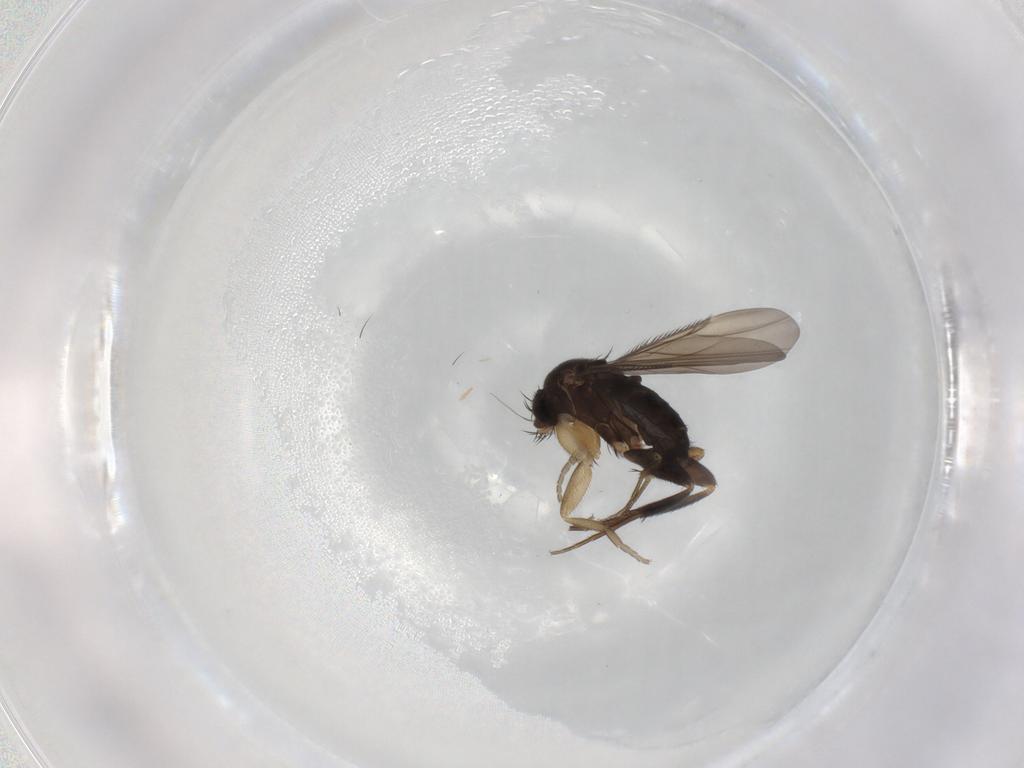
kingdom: Animalia
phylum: Arthropoda
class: Insecta
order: Diptera
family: Phoridae
